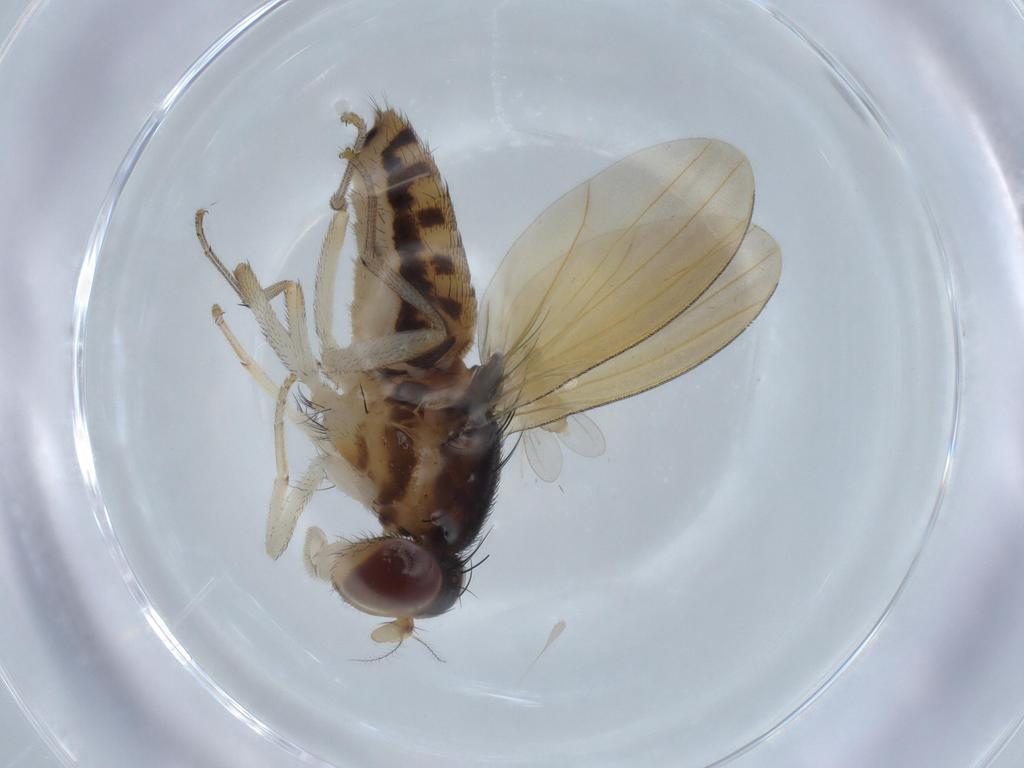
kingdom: Animalia
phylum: Arthropoda
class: Insecta
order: Diptera
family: Cecidomyiidae
